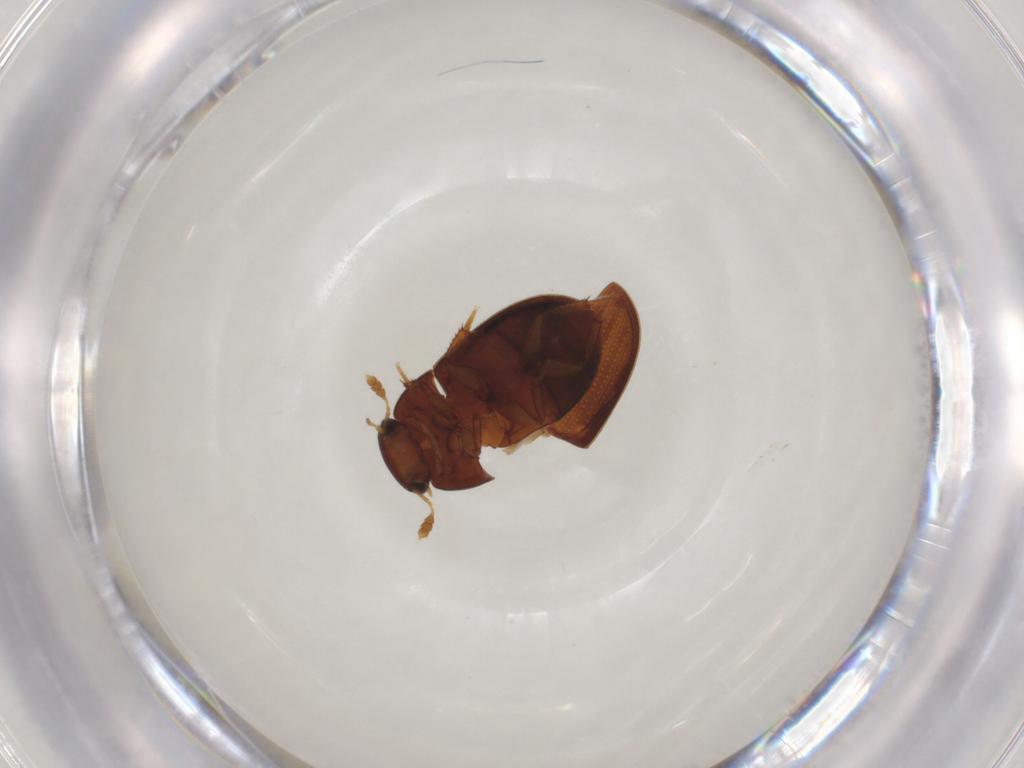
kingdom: Animalia
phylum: Arthropoda
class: Insecta
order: Coleoptera
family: Hydrophilidae
